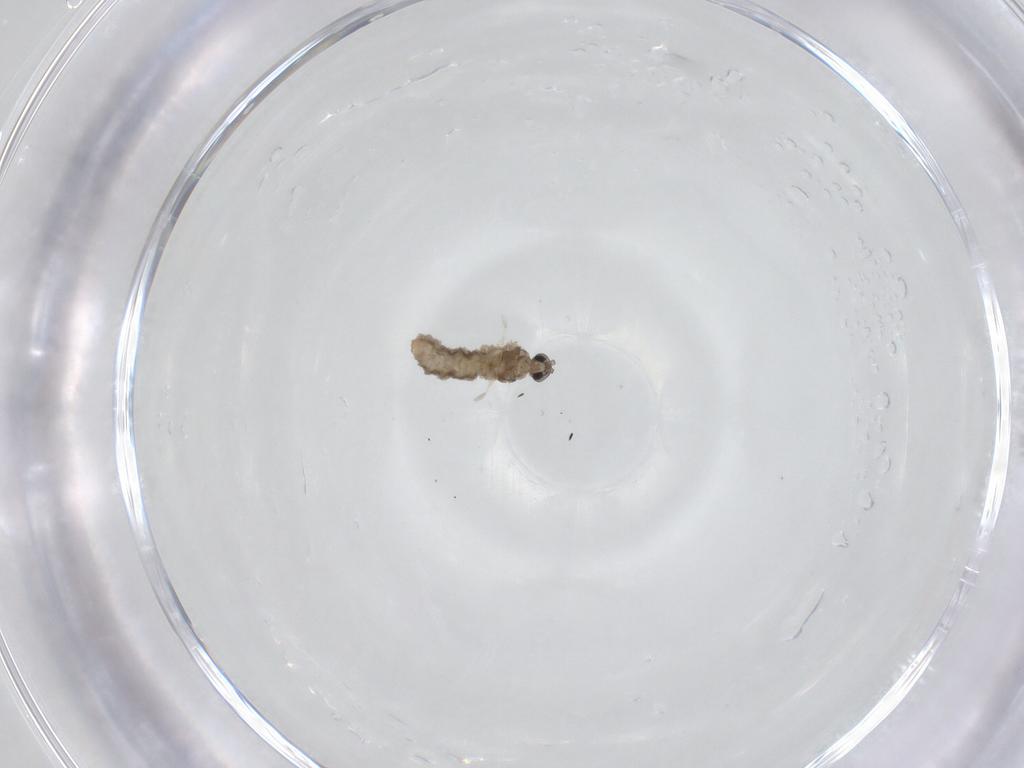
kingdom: Animalia
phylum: Arthropoda
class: Insecta
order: Diptera
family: Cecidomyiidae
